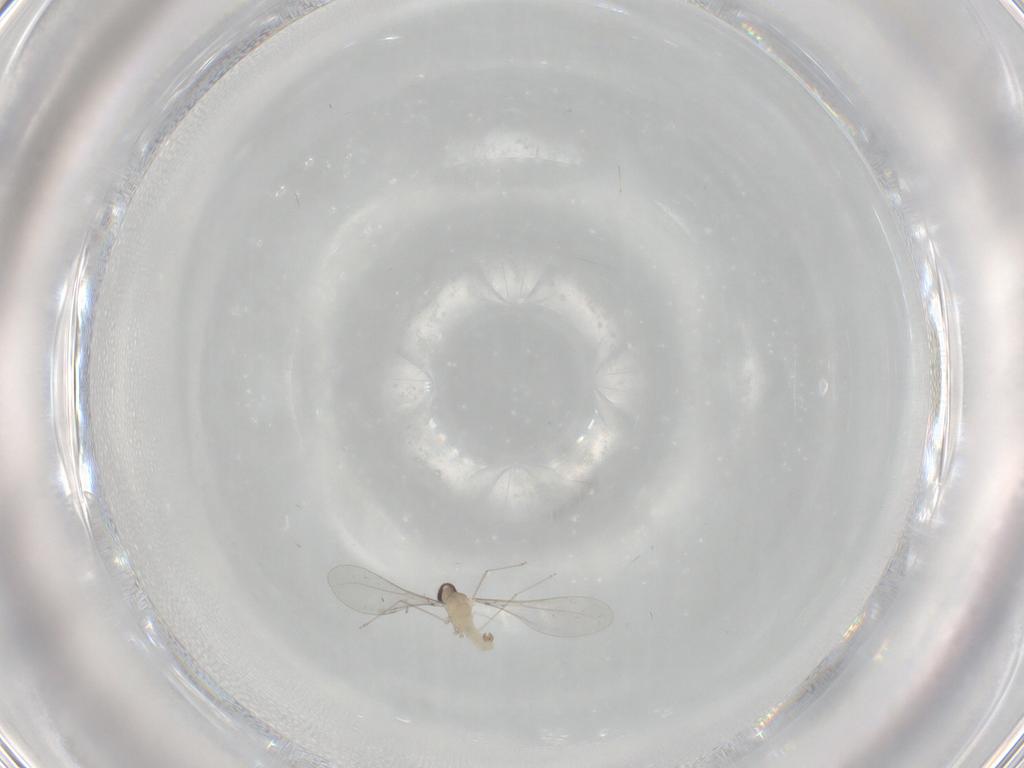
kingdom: Animalia
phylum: Arthropoda
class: Insecta
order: Diptera
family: Cecidomyiidae
